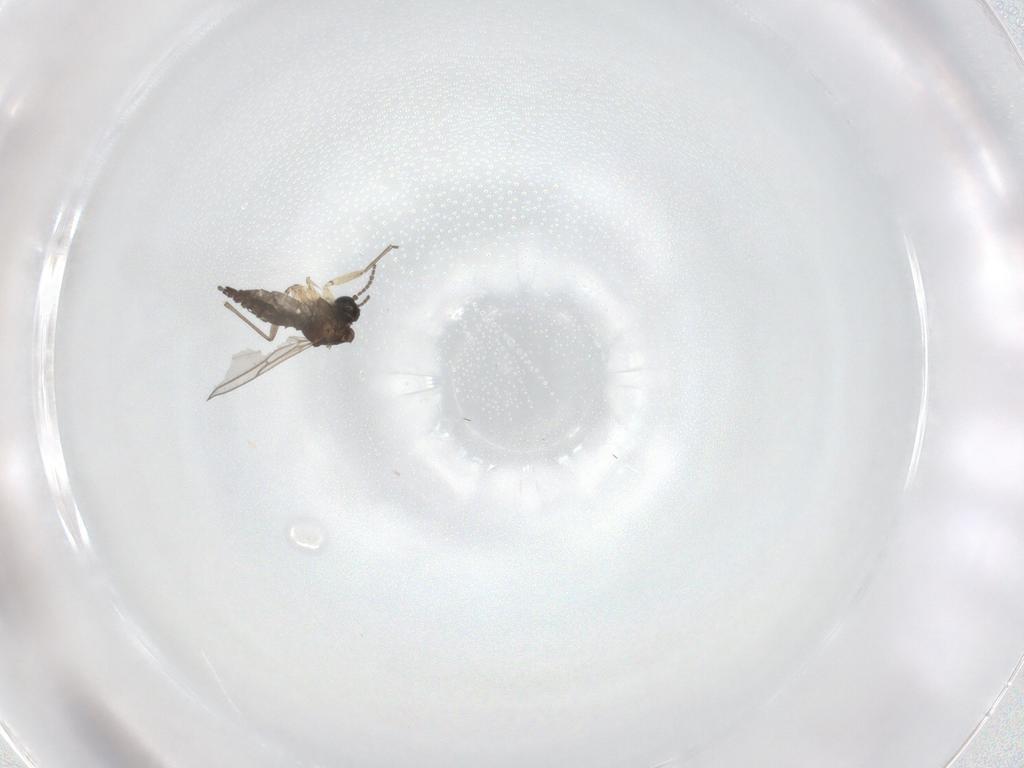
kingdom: Animalia
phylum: Arthropoda
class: Insecta
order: Diptera
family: Sciaridae
